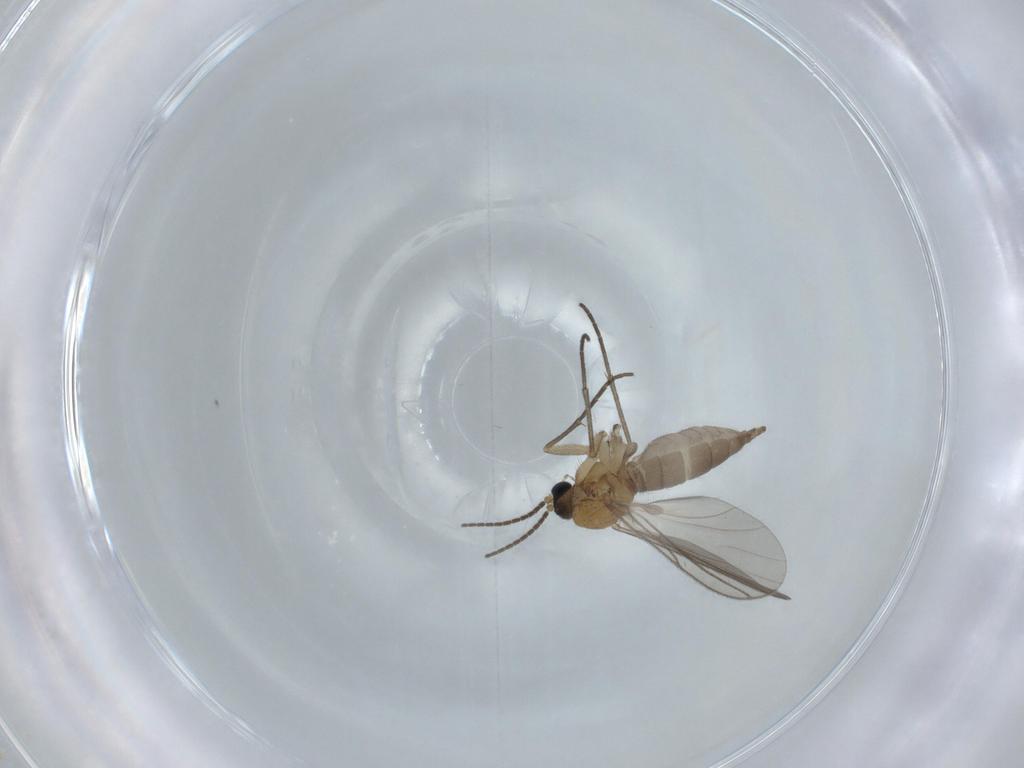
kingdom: Animalia
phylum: Arthropoda
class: Insecta
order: Diptera
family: Sciaridae
